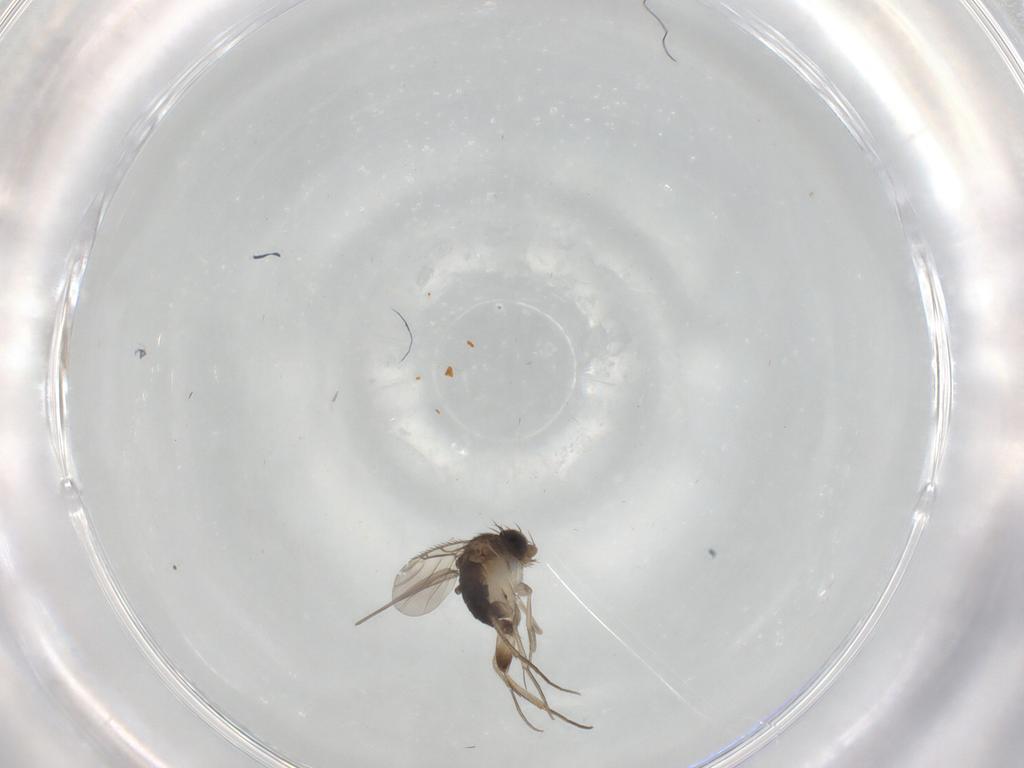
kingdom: Animalia
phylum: Arthropoda
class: Insecta
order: Diptera
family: Phoridae
